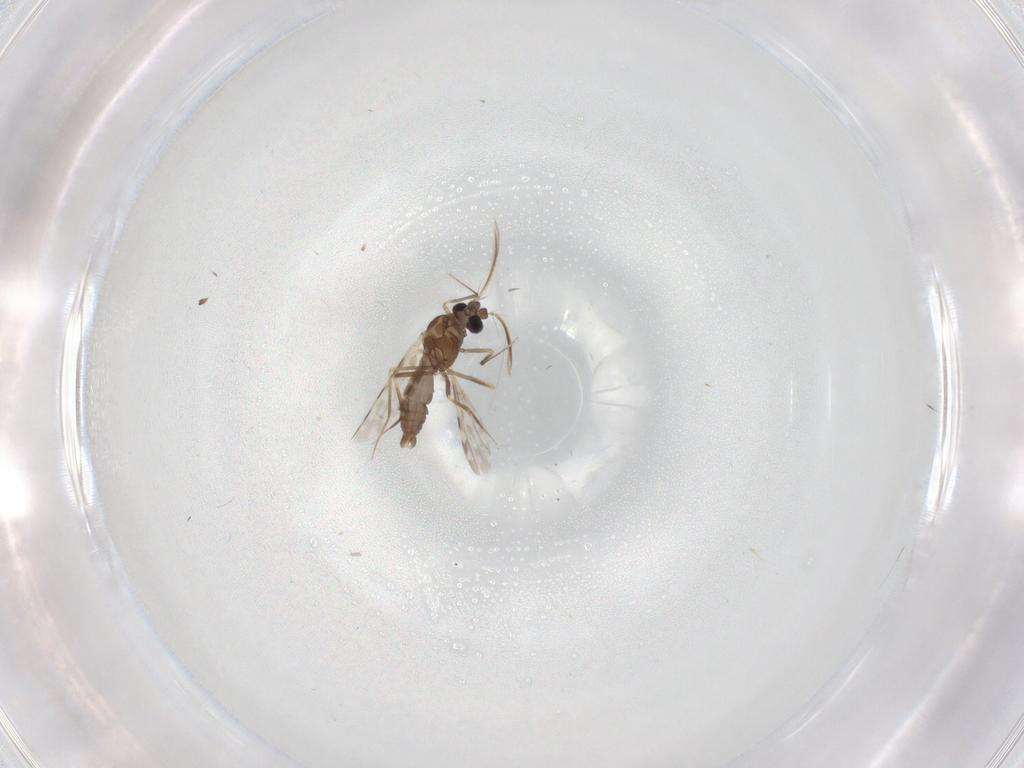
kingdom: Animalia
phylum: Arthropoda
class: Insecta
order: Diptera
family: Ceratopogonidae
